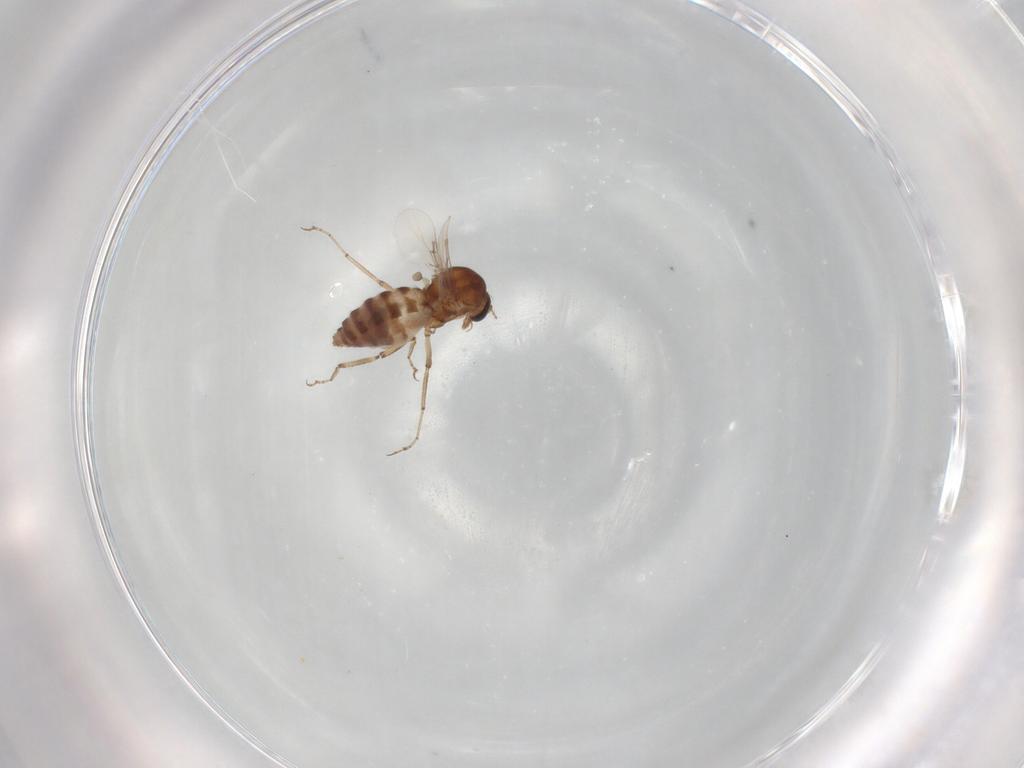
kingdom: Animalia
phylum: Arthropoda
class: Insecta
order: Diptera
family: Ceratopogonidae
